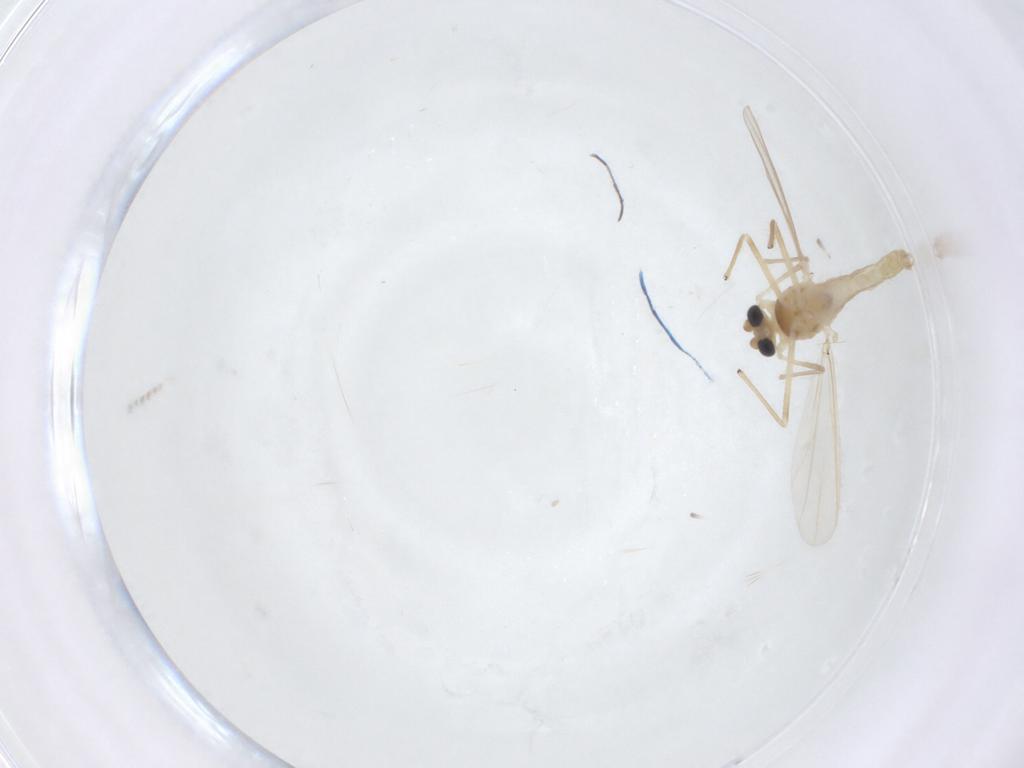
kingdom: Animalia
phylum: Arthropoda
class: Insecta
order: Diptera
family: Chironomidae
